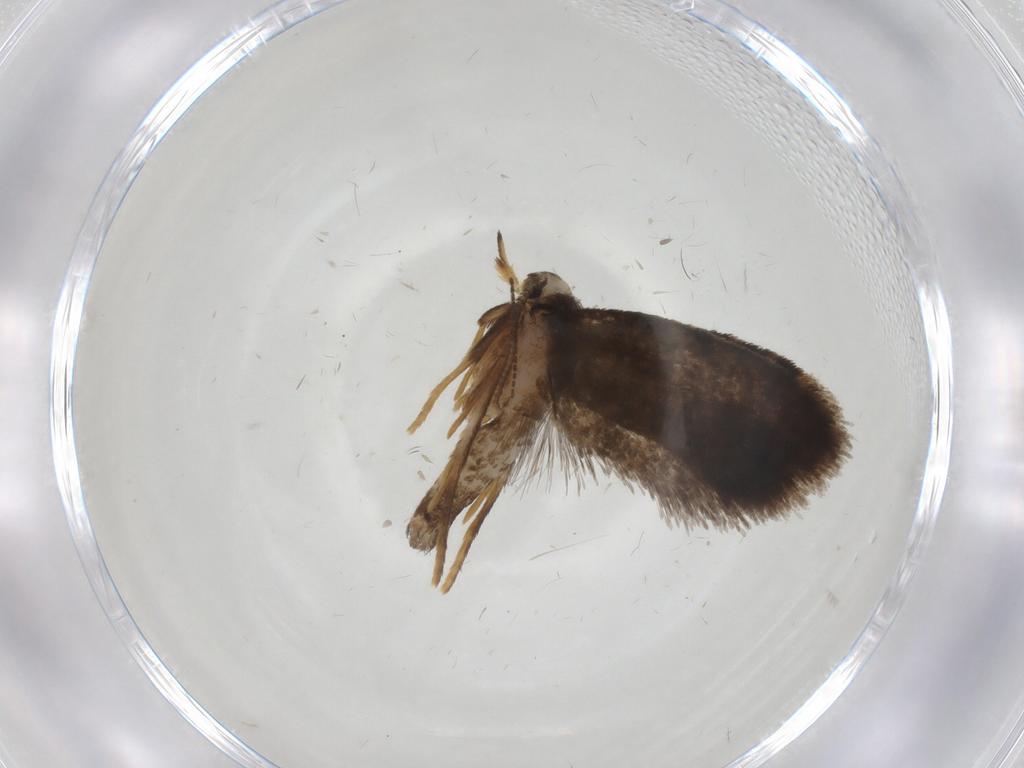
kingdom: Animalia
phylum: Arthropoda
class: Insecta
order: Lepidoptera
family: Psychidae
